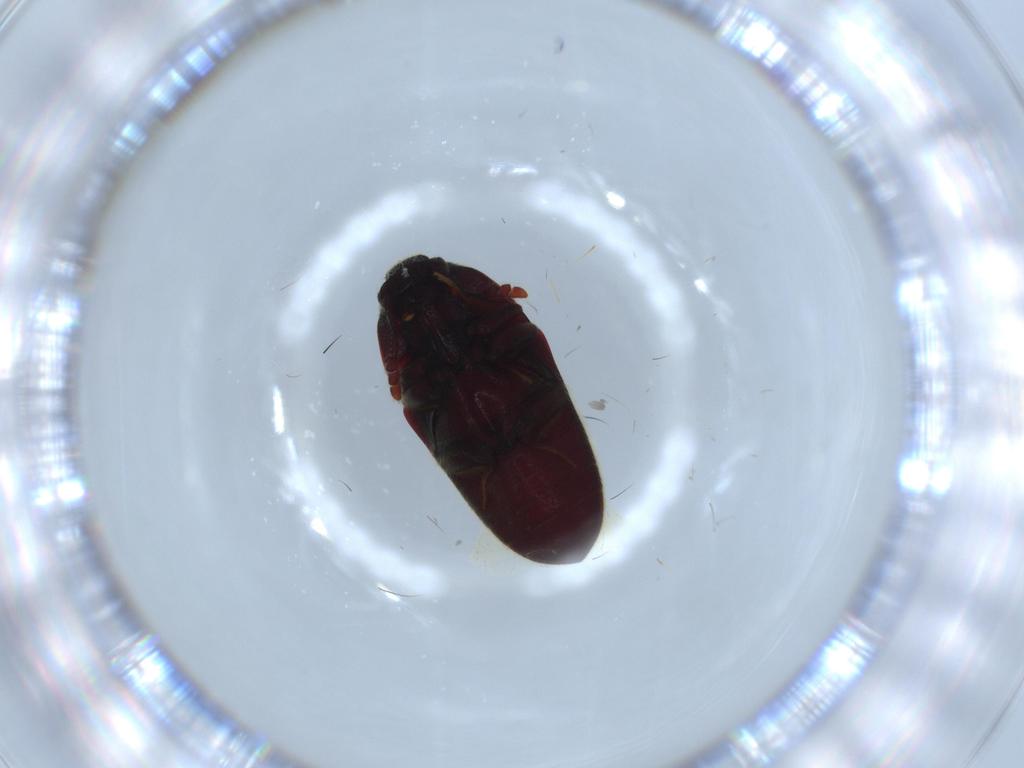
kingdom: Animalia
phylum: Arthropoda
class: Insecta
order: Coleoptera
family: Throscidae
